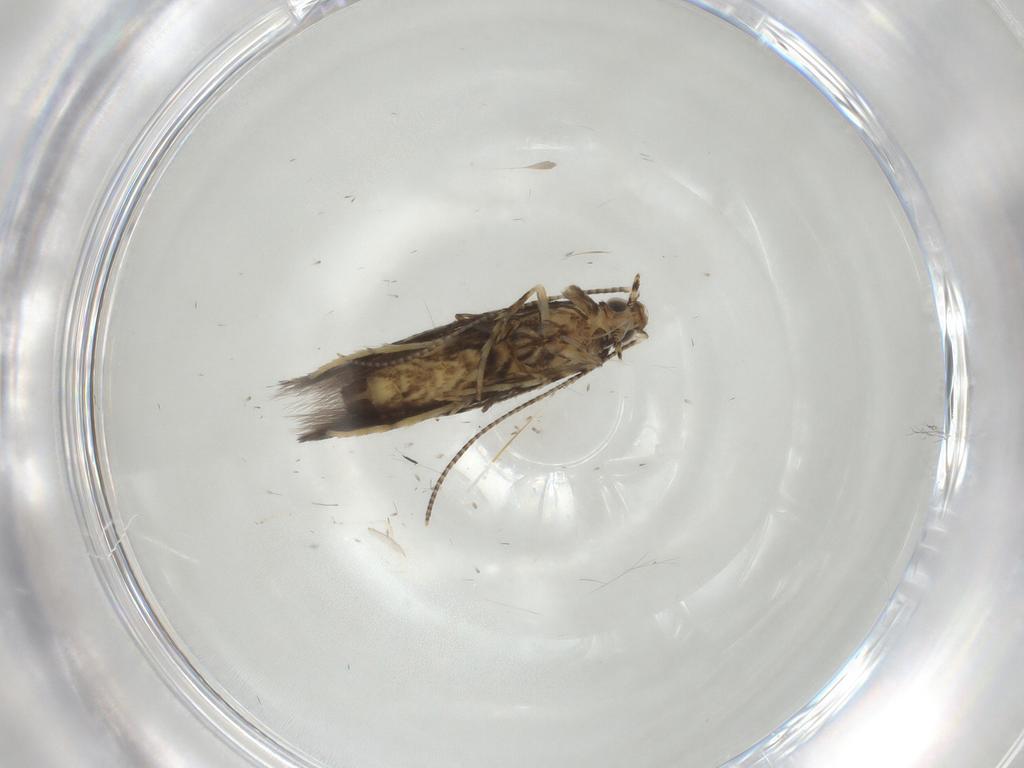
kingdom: Animalia
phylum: Arthropoda
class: Insecta
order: Lepidoptera
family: Gracillariidae
